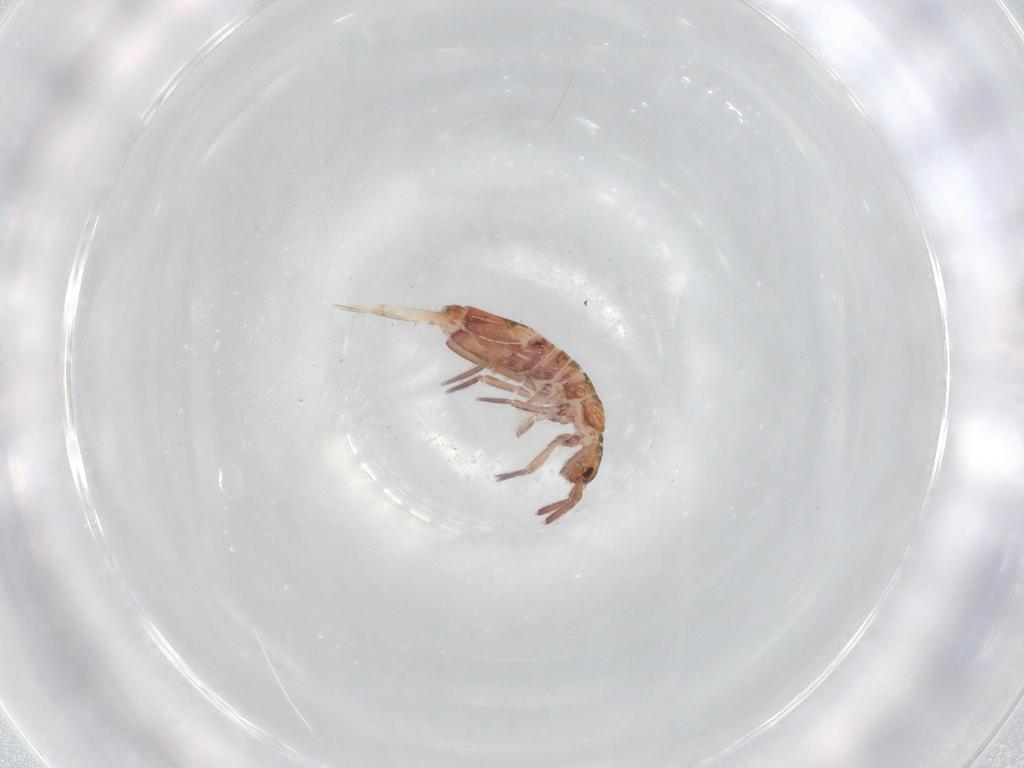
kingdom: Animalia
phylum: Arthropoda
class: Collembola
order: Entomobryomorpha
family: Entomobryidae
